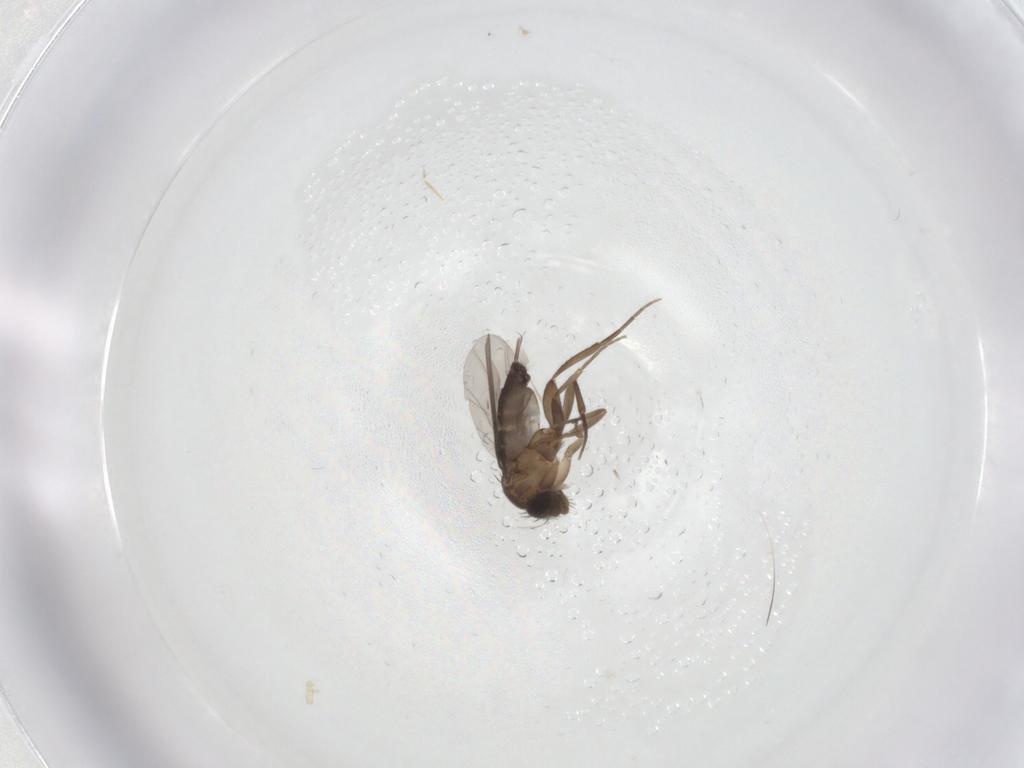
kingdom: Animalia
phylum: Arthropoda
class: Insecta
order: Diptera
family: Phoridae
